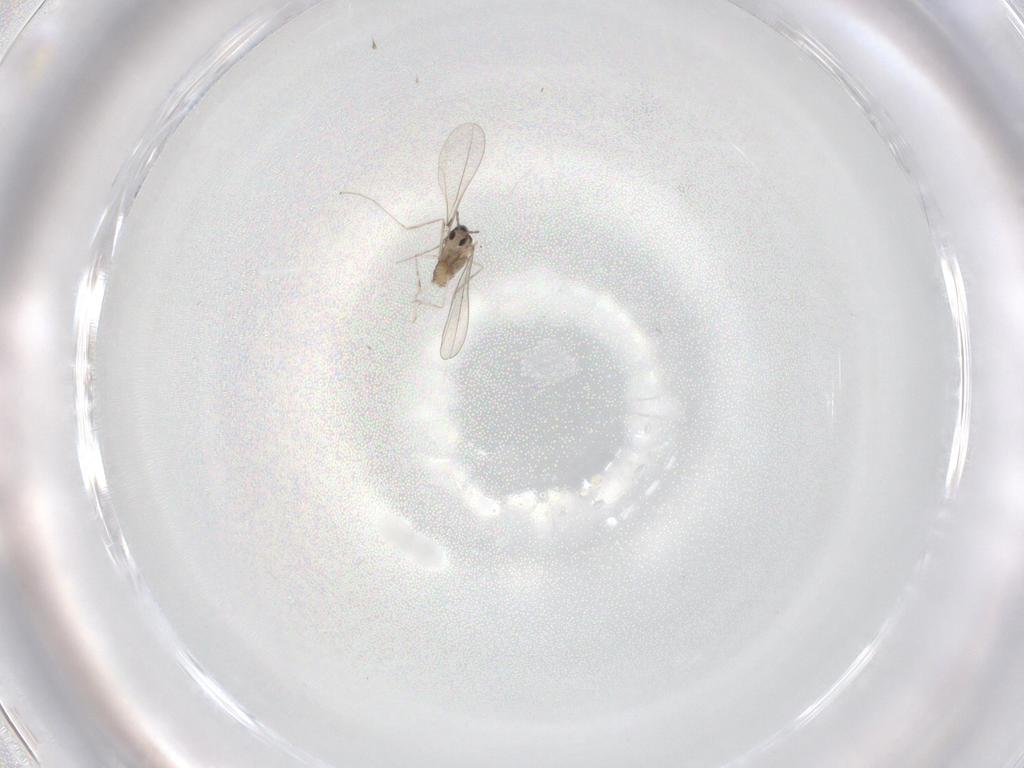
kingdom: Animalia
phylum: Arthropoda
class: Insecta
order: Diptera
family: Cecidomyiidae
